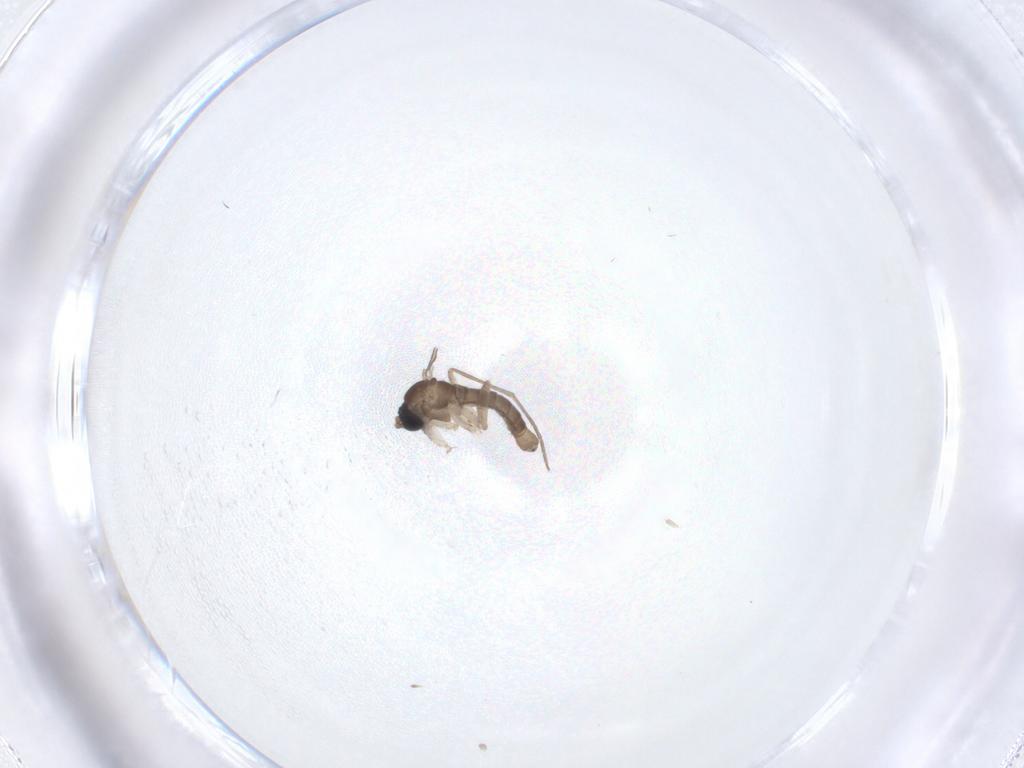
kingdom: Animalia
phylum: Arthropoda
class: Insecta
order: Diptera
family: Sciaridae
